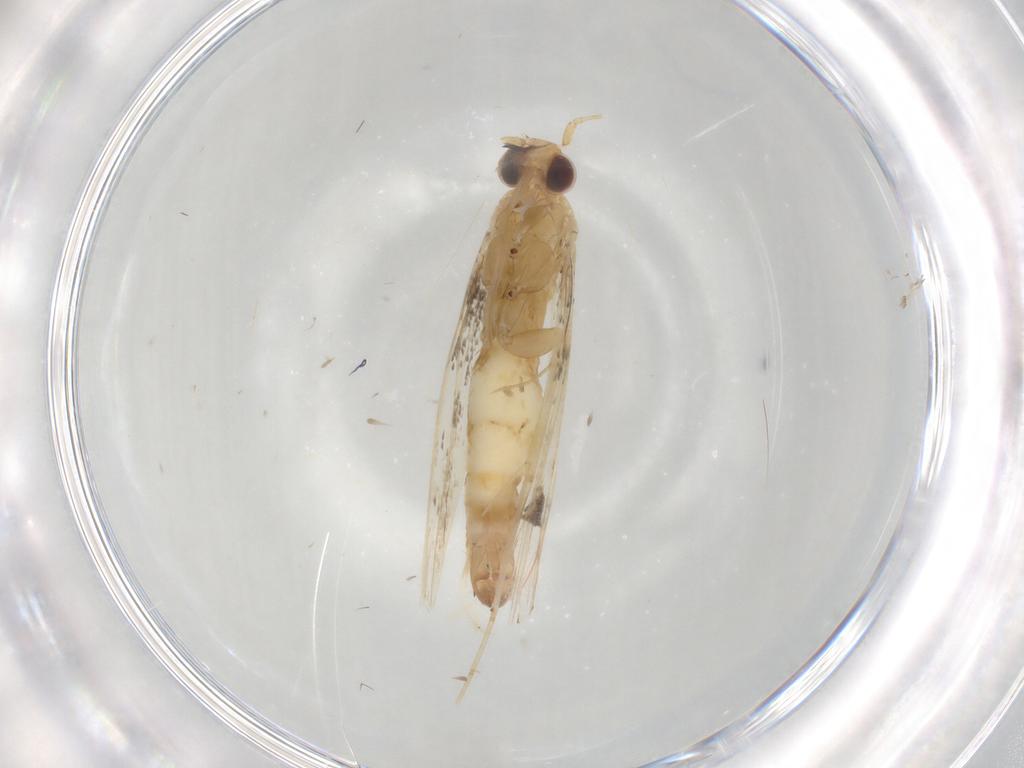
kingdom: Animalia
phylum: Arthropoda
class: Insecta
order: Lepidoptera
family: Gracillariidae
